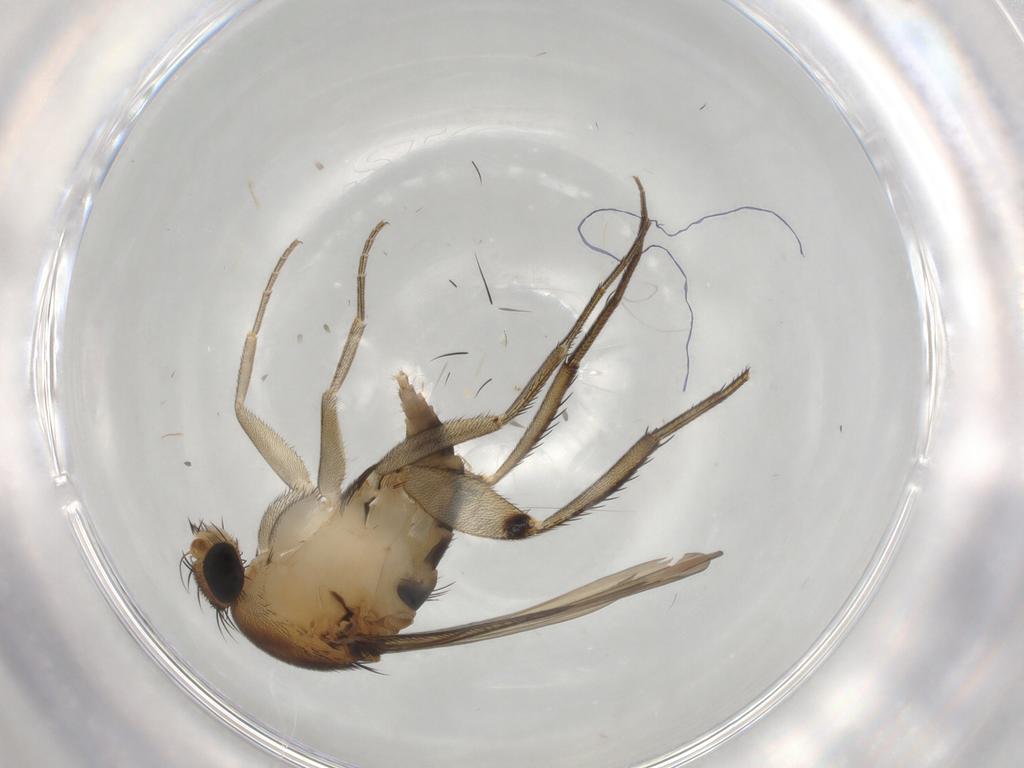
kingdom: Animalia
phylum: Arthropoda
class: Insecta
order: Diptera
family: Phoridae
